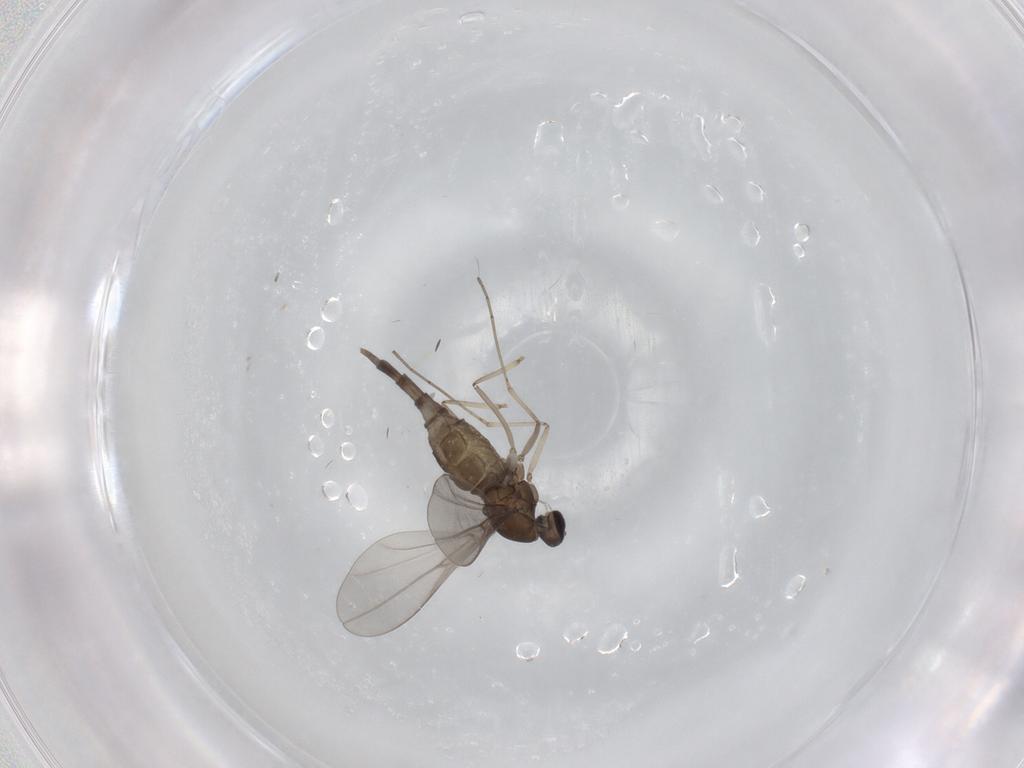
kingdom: Animalia
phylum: Arthropoda
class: Insecta
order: Diptera
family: Cecidomyiidae
